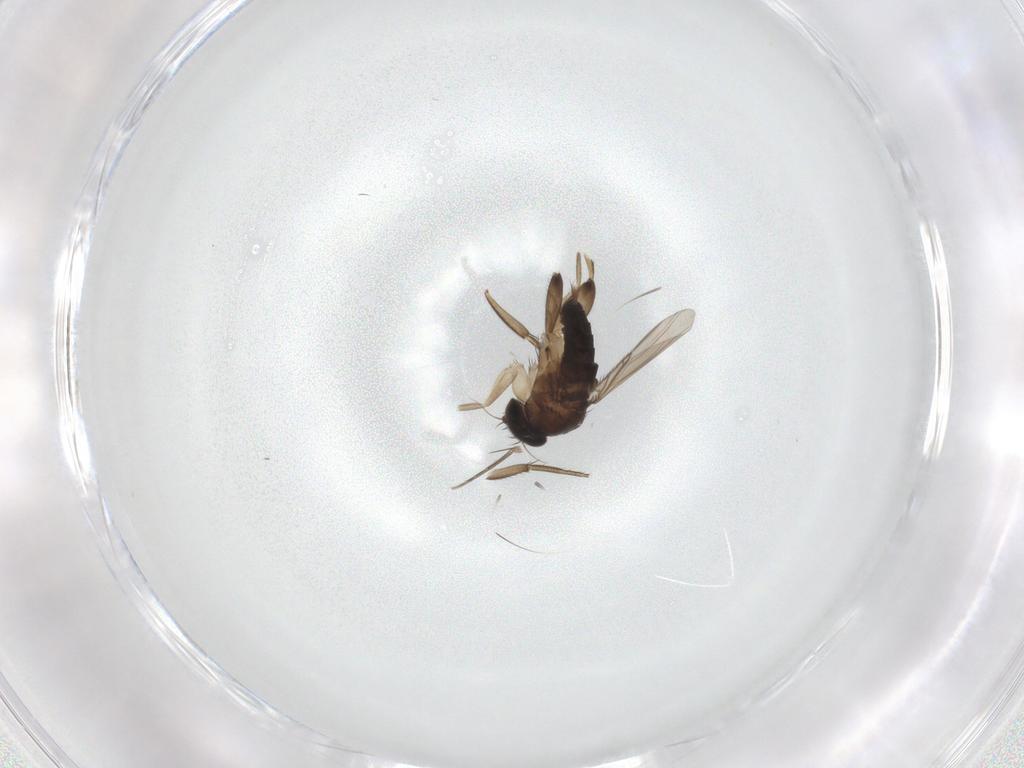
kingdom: Animalia
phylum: Arthropoda
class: Insecta
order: Diptera
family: Phoridae
